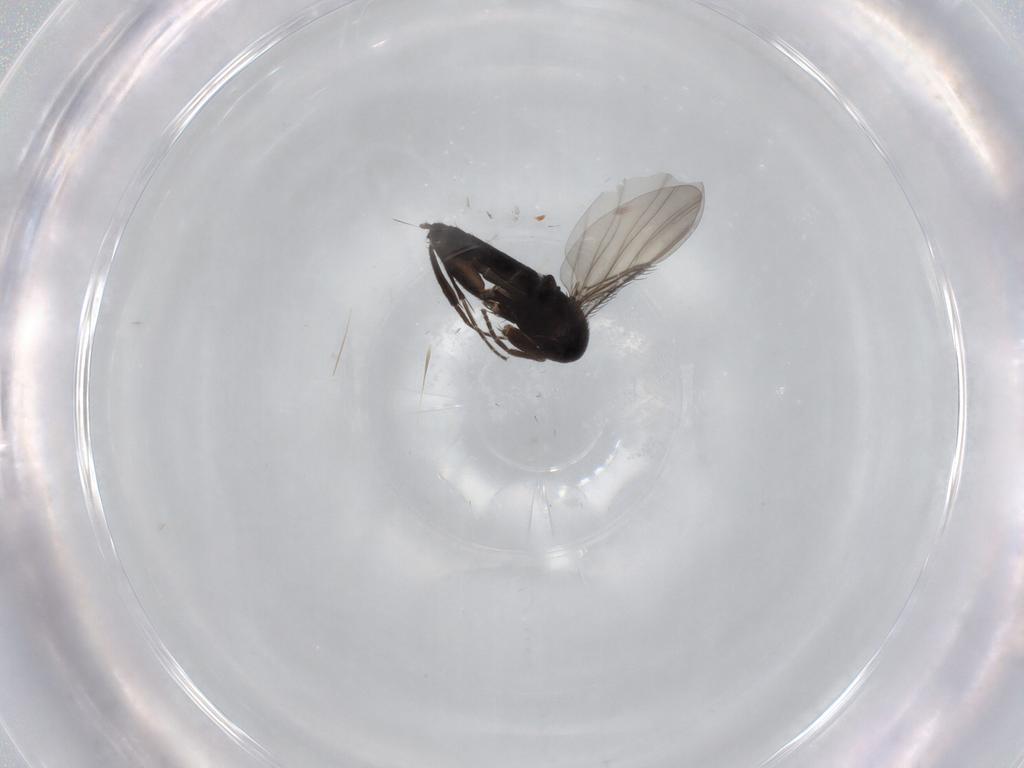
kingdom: Animalia
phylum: Arthropoda
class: Insecta
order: Diptera
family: Phoridae
